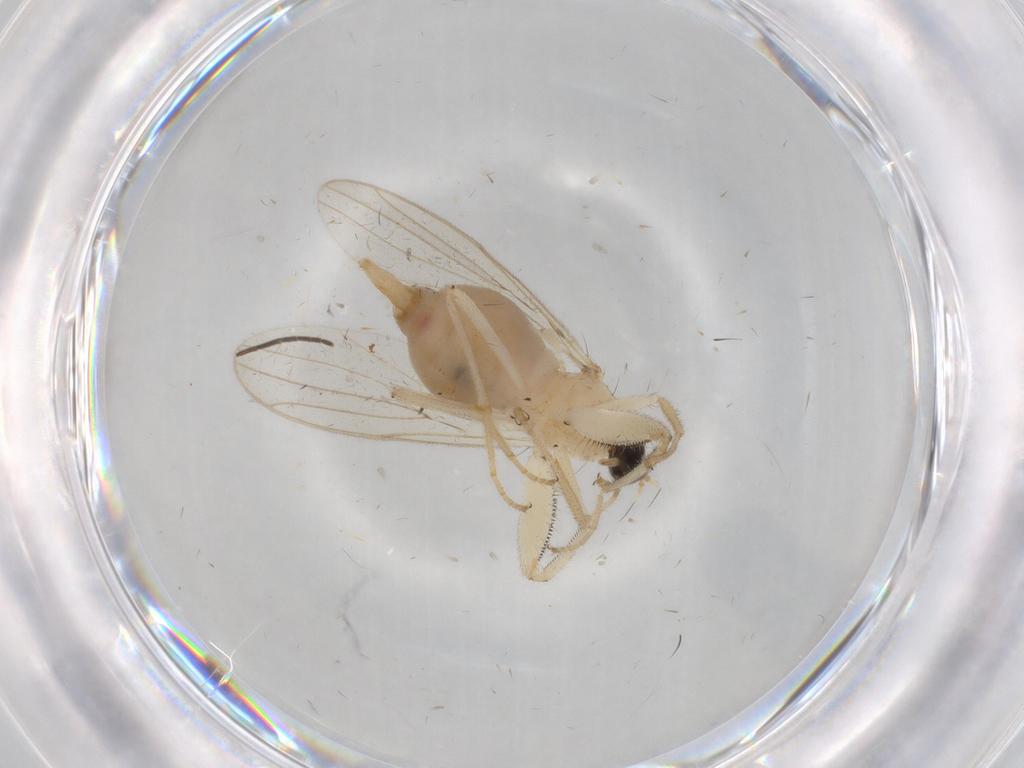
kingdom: Animalia
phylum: Arthropoda
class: Insecta
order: Diptera
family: Hybotidae
